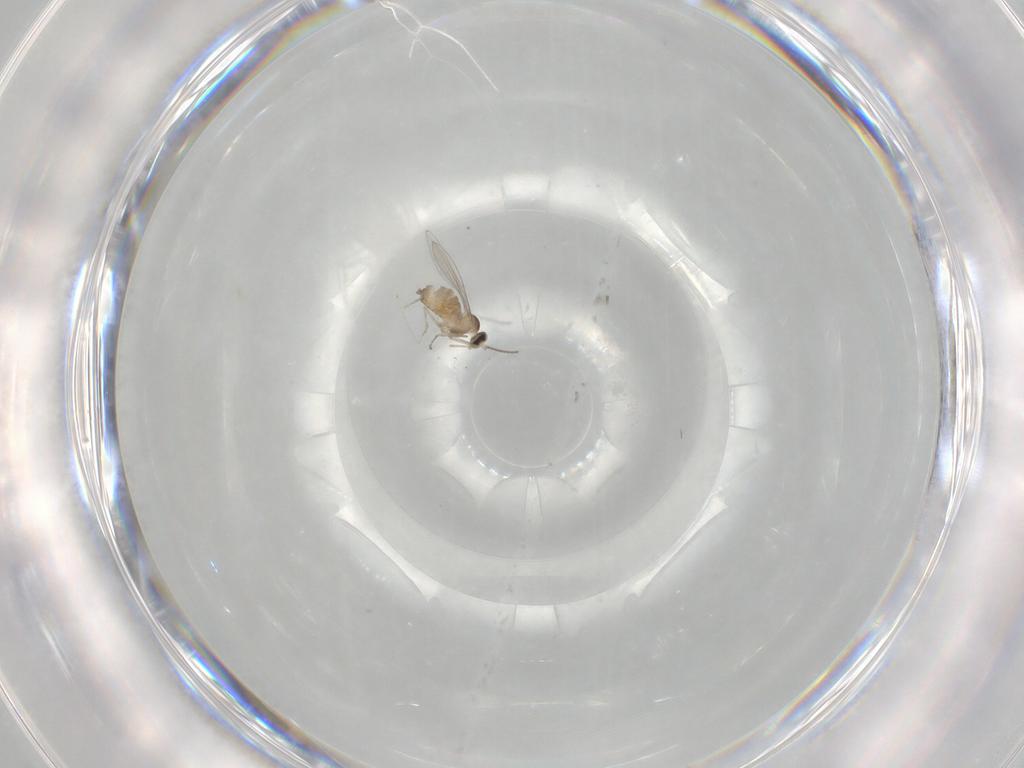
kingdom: Animalia
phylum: Arthropoda
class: Insecta
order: Diptera
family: Cecidomyiidae
